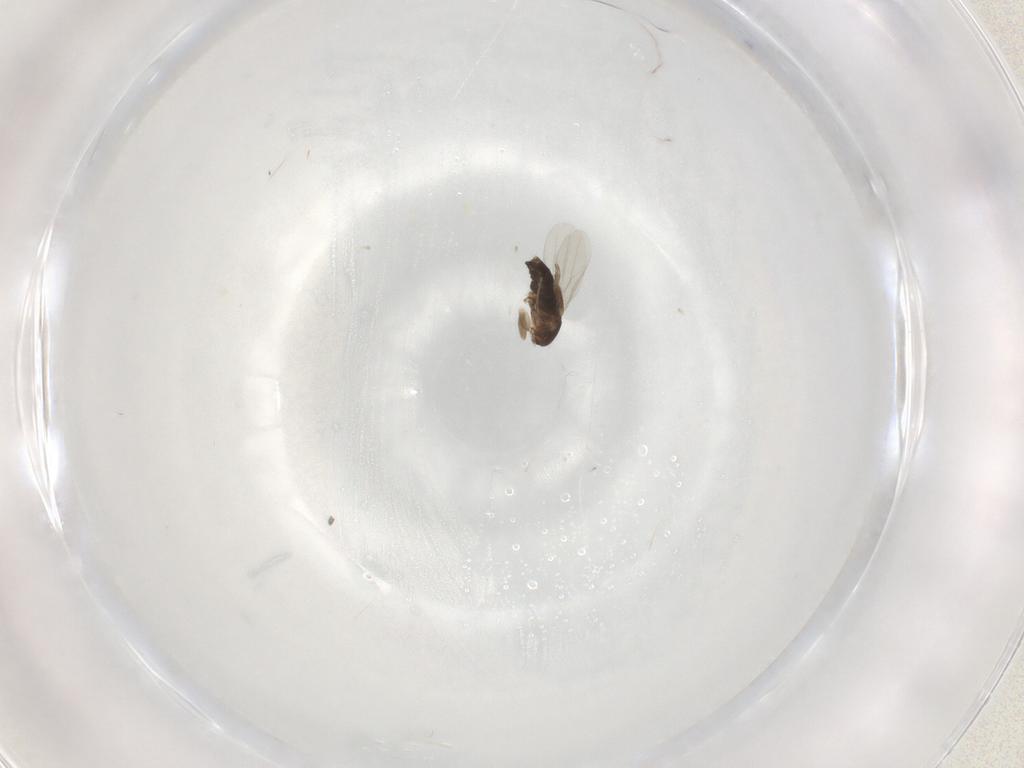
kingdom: Animalia
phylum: Arthropoda
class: Insecta
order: Diptera
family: Phoridae
